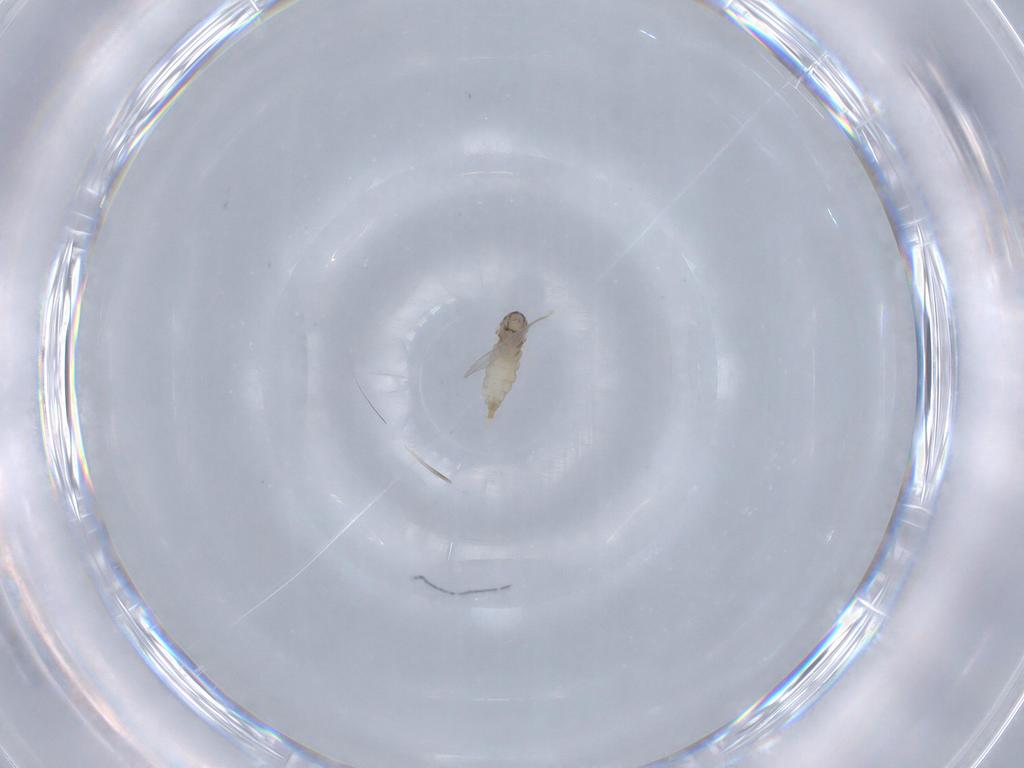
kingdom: Animalia
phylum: Arthropoda
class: Insecta
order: Diptera
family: Cecidomyiidae
